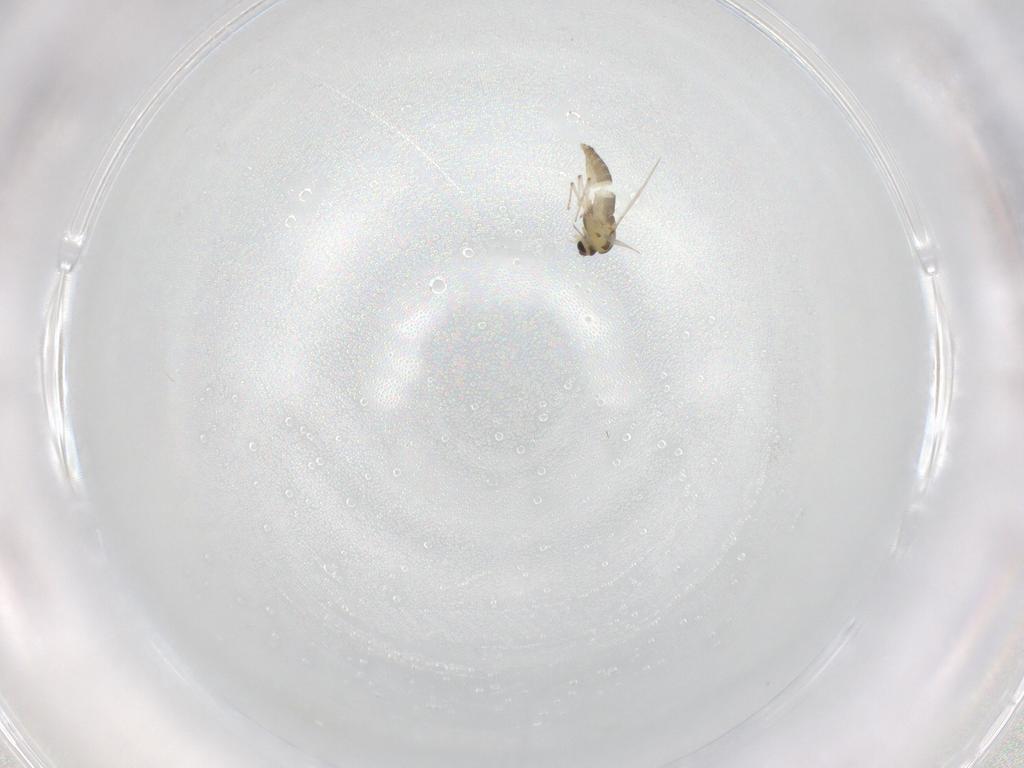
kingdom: Animalia
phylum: Arthropoda
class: Insecta
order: Diptera
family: Chironomidae
